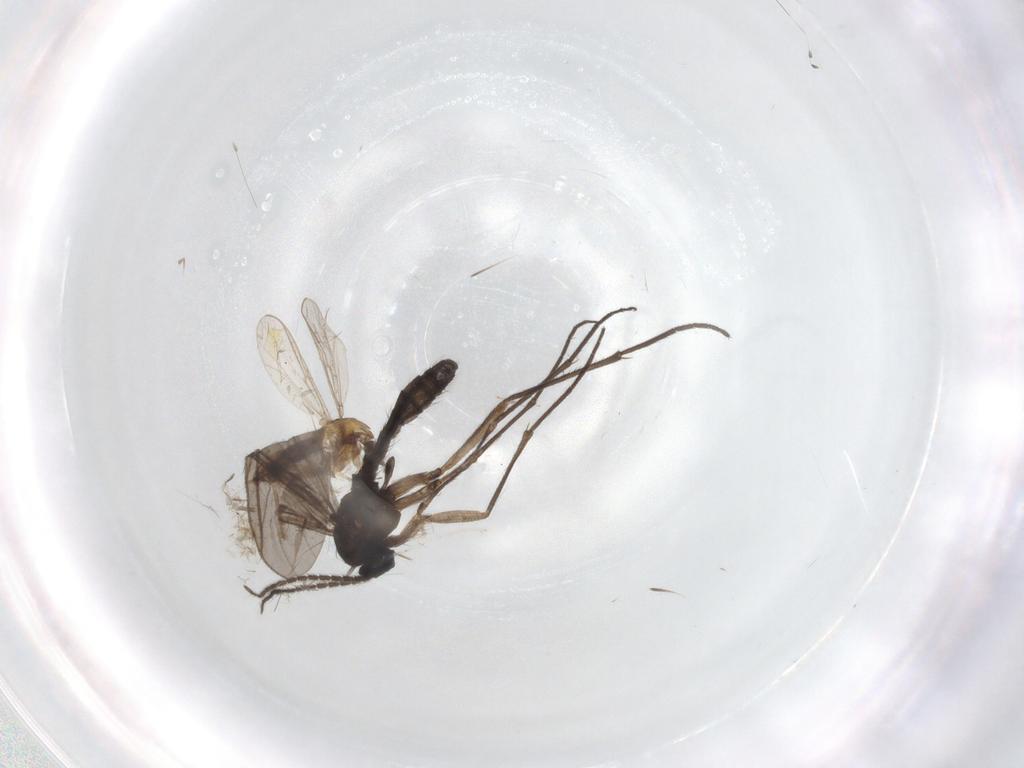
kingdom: Animalia
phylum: Arthropoda
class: Insecta
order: Diptera
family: Chironomidae
